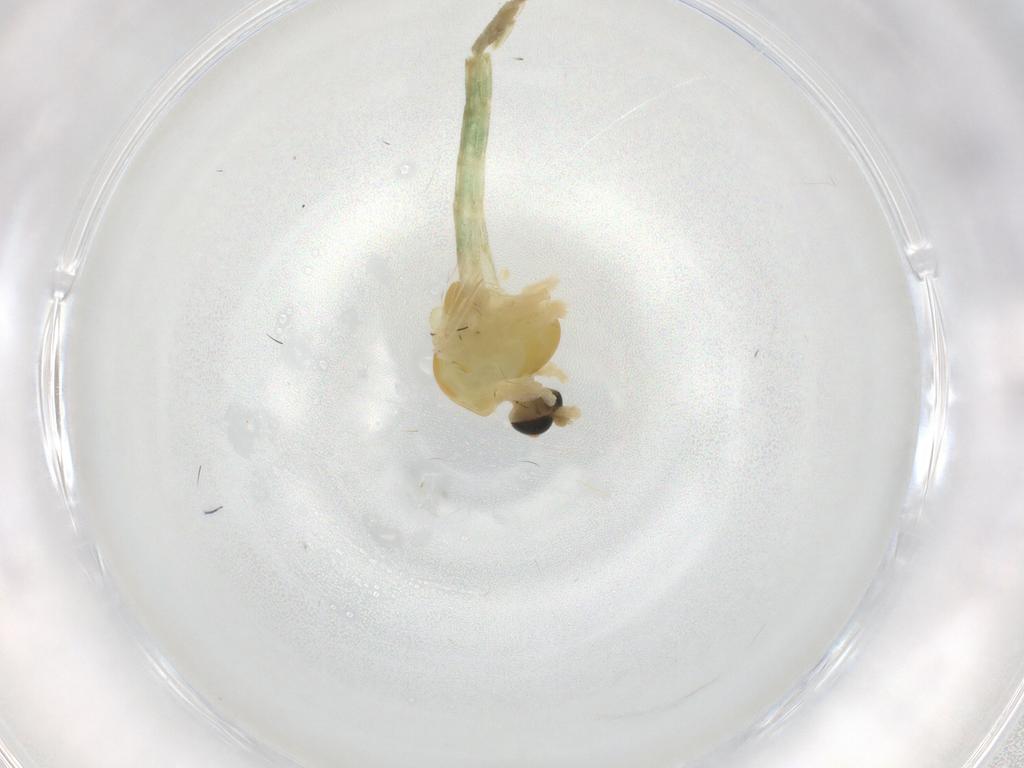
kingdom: Animalia
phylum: Arthropoda
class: Insecta
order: Diptera
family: Chironomidae
